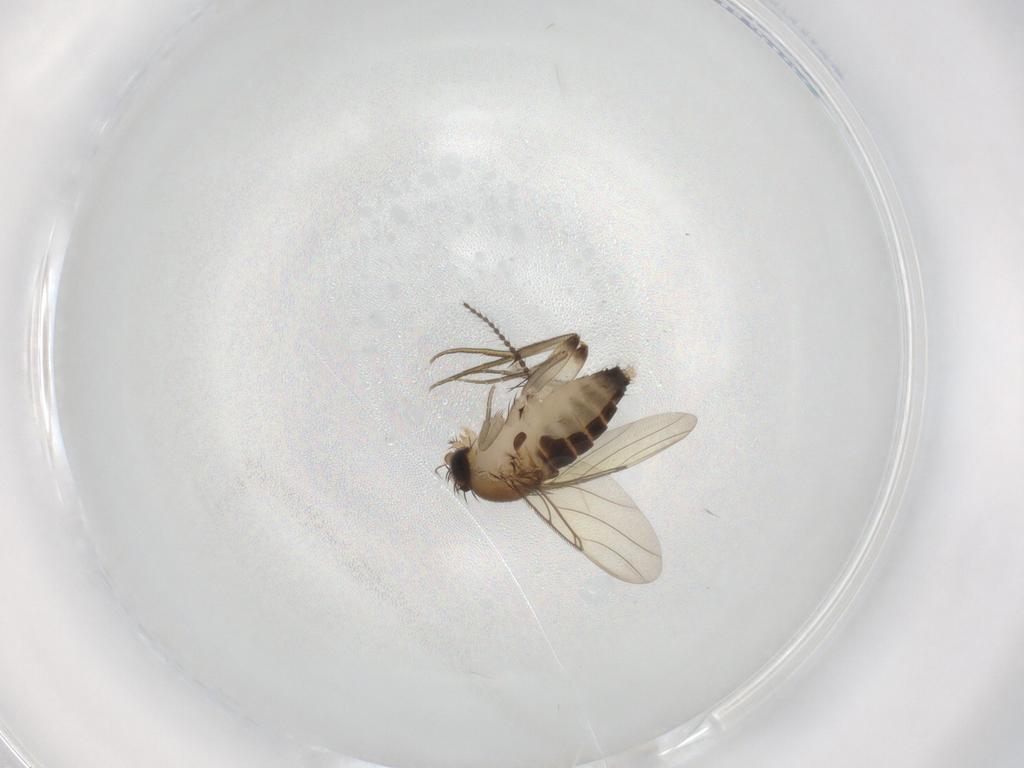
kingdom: Animalia
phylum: Arthropoda
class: Insecta
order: Diptera
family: Phoridae
